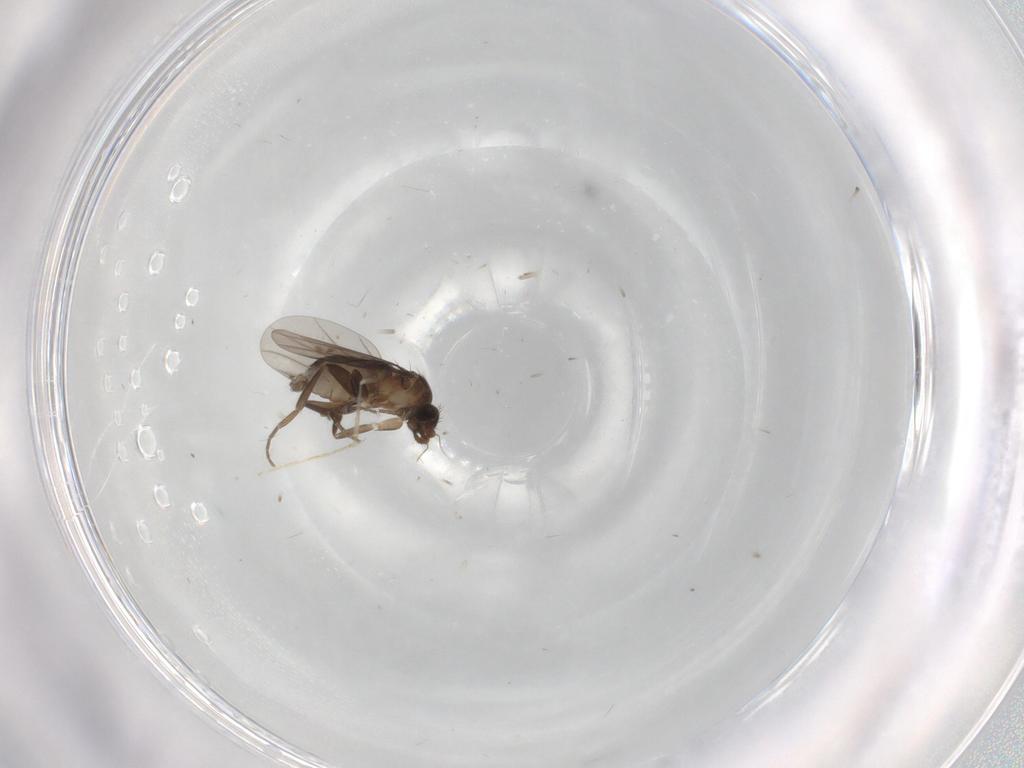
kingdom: Animalia
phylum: Arthropoda
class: Insecta
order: Diptera
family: Phoridae
